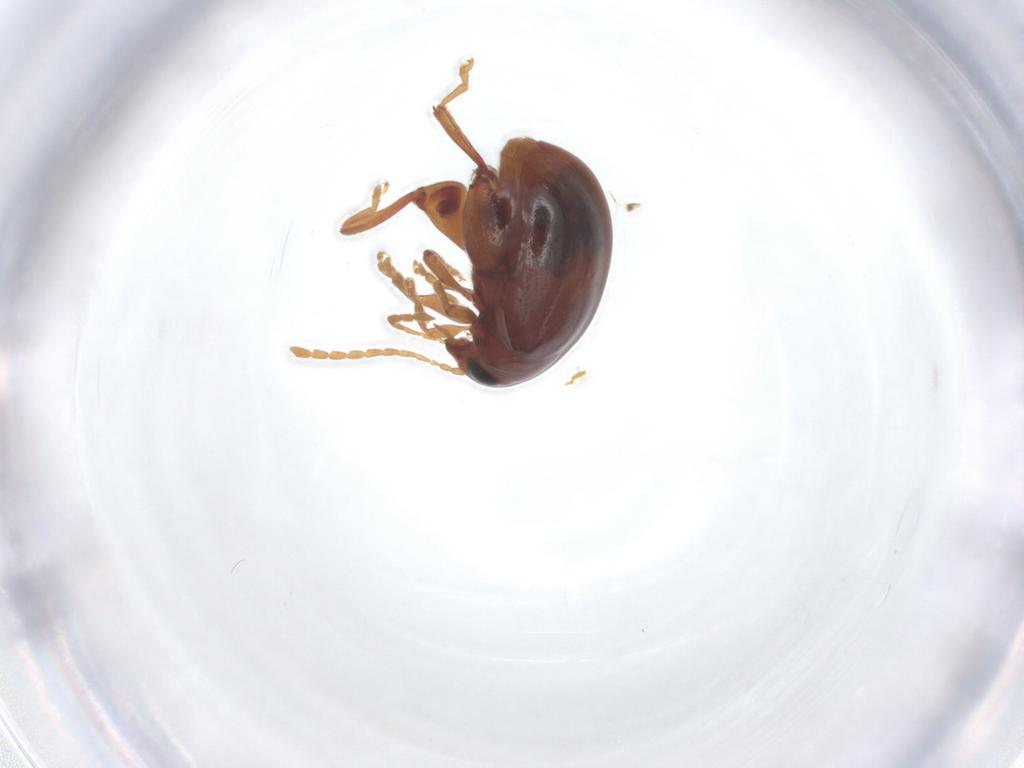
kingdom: Animalia
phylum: Arthropoda
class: Insecta
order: Coleoptera
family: Chrysomelidae
